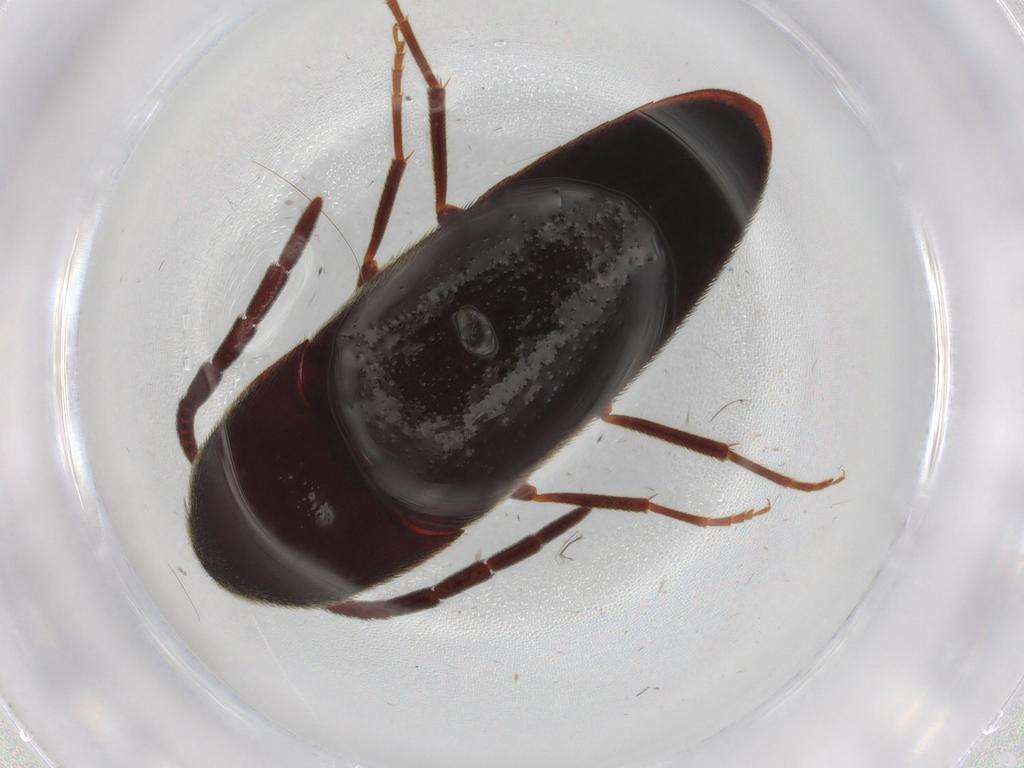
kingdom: Animalia
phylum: Arthropoda
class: Insecta
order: Coleoptera
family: Eucnemidae
